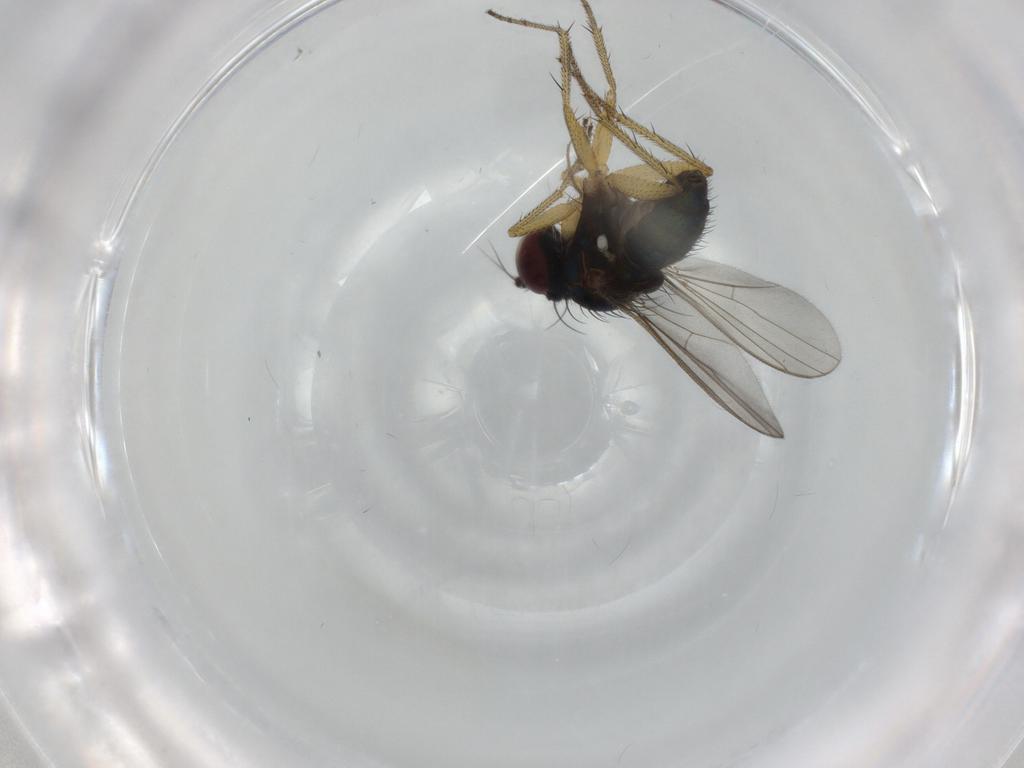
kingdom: Animalia
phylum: Arthropoda
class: Insecta
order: Diptera
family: Dolichopodidae
